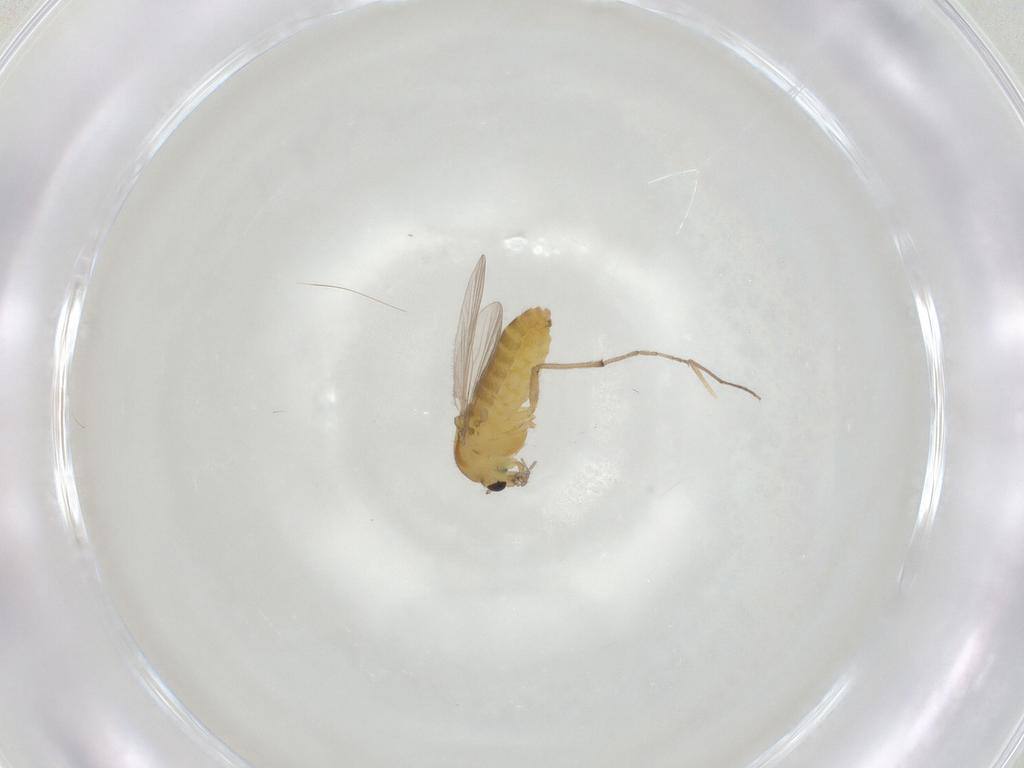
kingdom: Animalia
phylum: Arthropoda
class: Insecta
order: Diptera
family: Chironomidae
